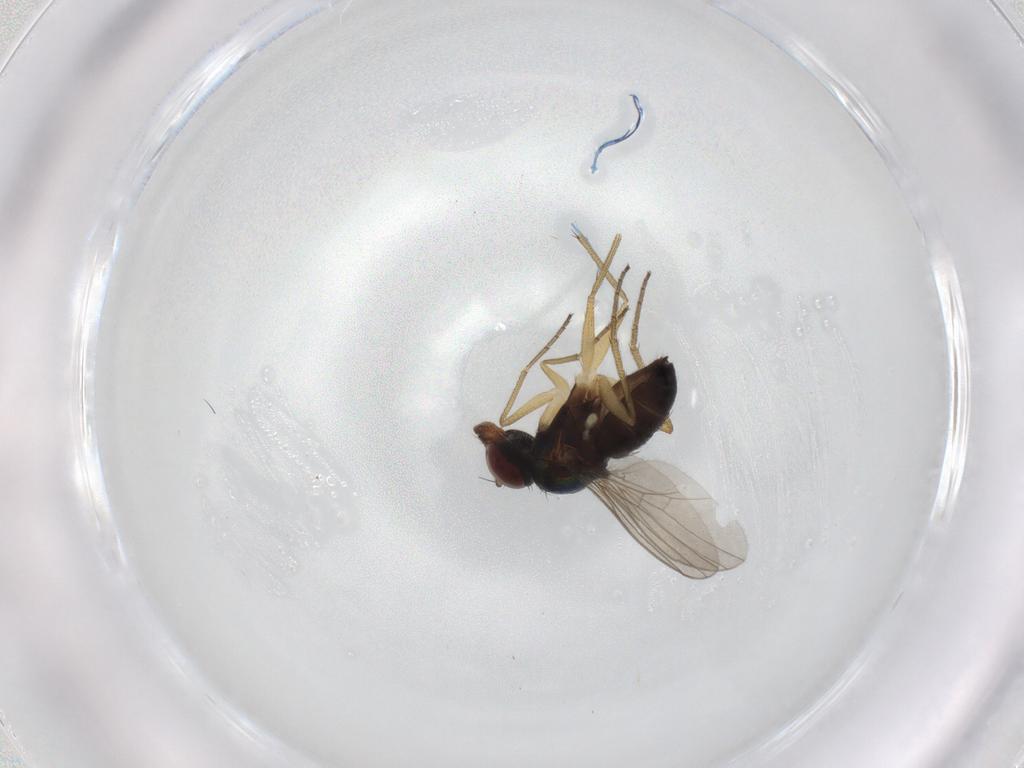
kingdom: Animalia
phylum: Arthropoda
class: Insecta
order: Diptera
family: Dolichopodidae
